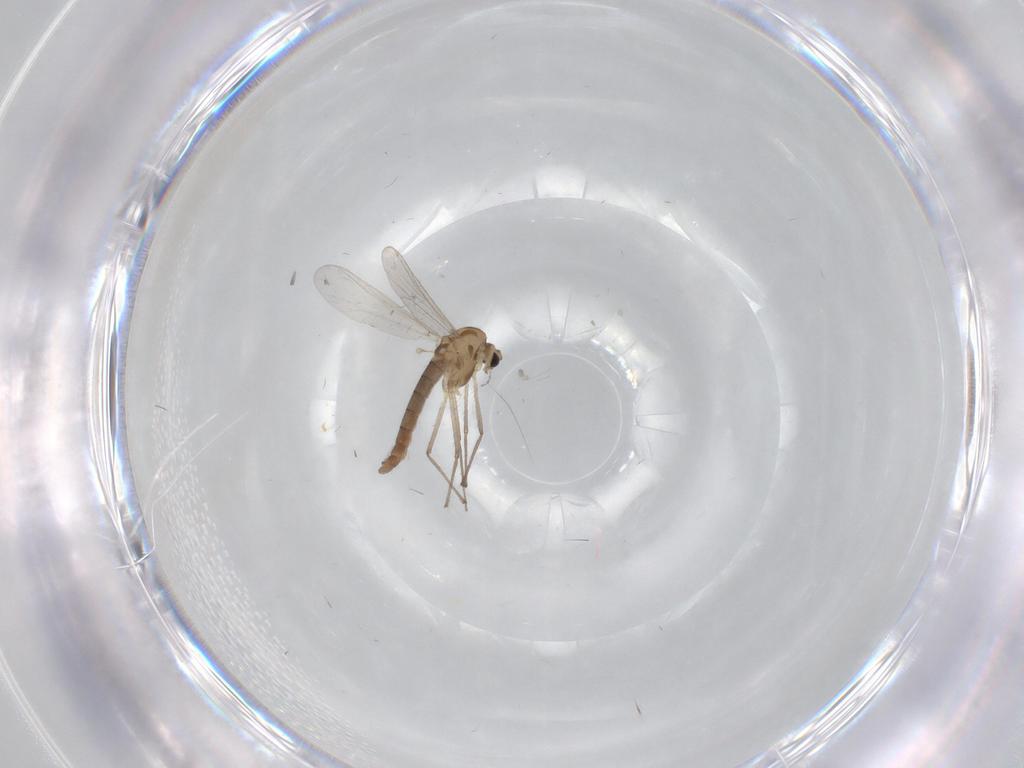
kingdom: Animalia
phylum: Arthropoda
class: Insecta
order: Diptera
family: Chironomidae
